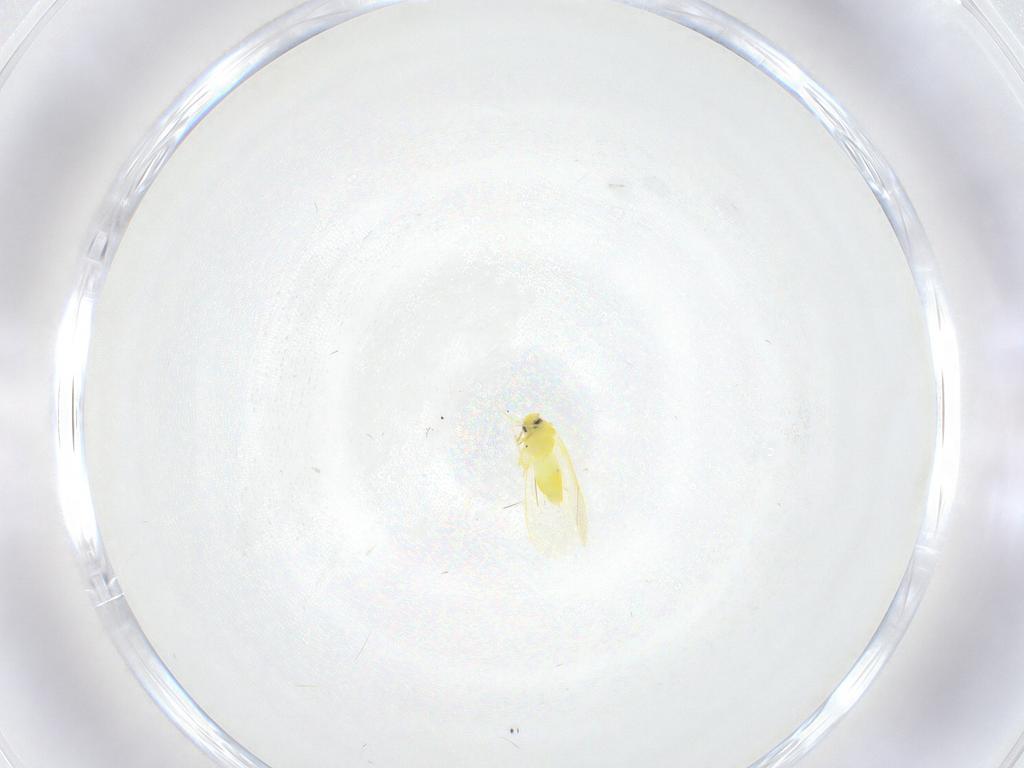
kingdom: Animalia
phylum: Arthropoda
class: Insecta
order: Hemiptera
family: Aleyrodidae
